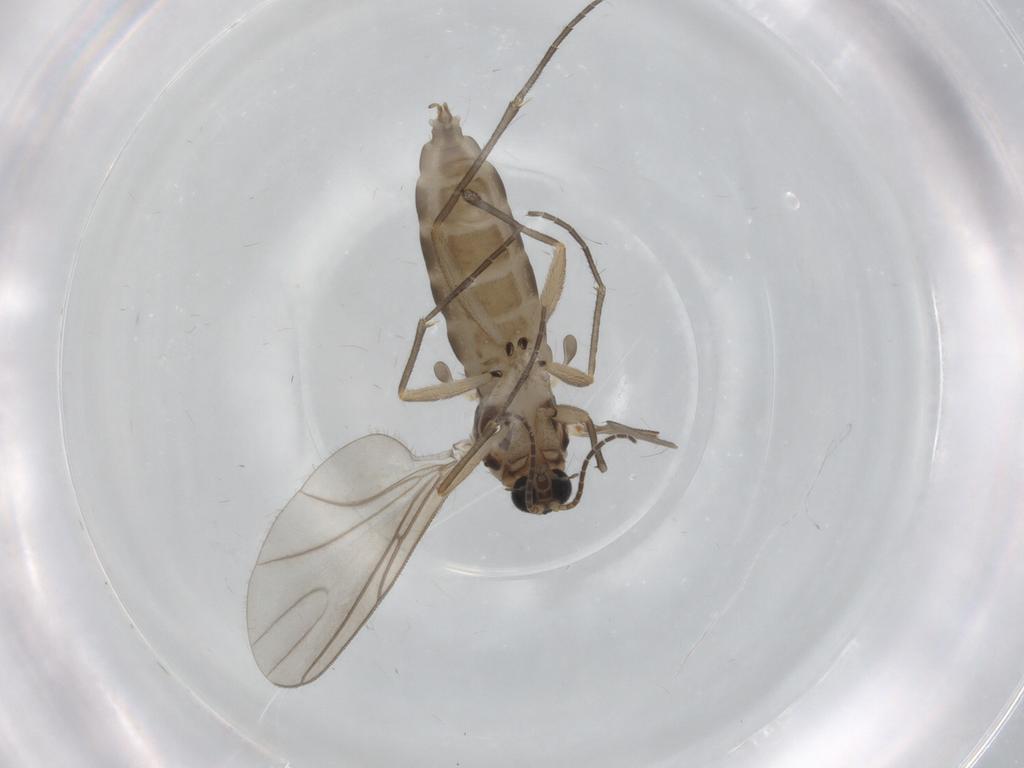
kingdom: Animalia
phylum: Arthropoda
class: Insecta
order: Diptera
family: Sciaridae
